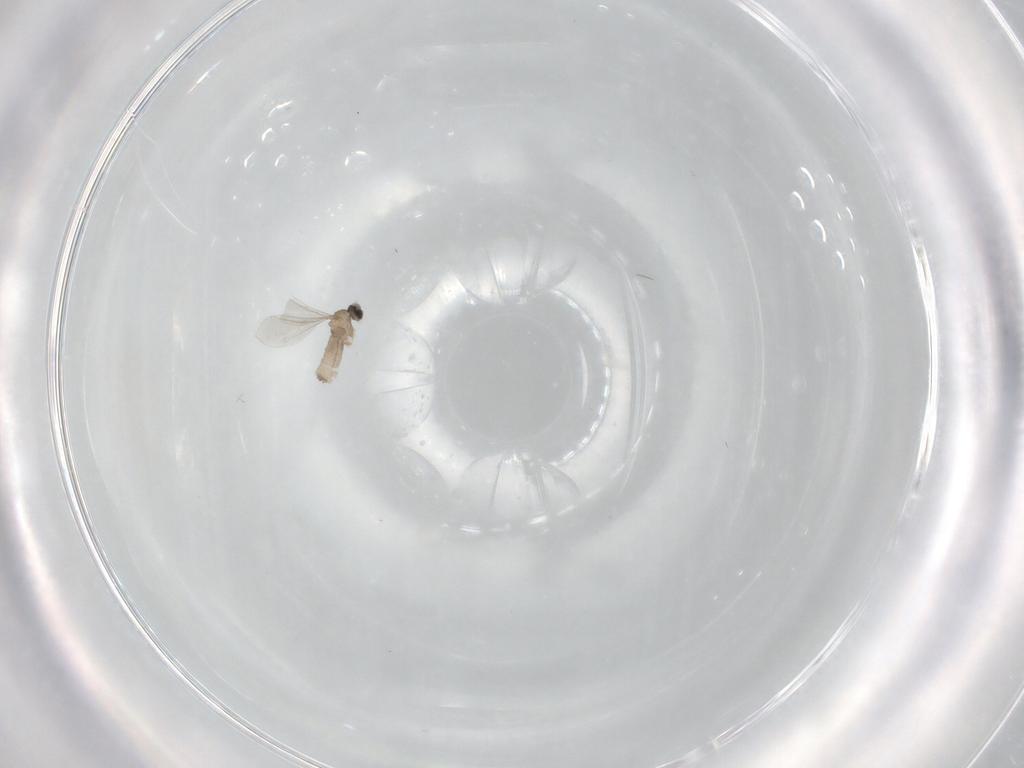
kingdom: Animalia
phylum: Arthropoda
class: Insecta
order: Diptera
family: Cecidomyiidae
